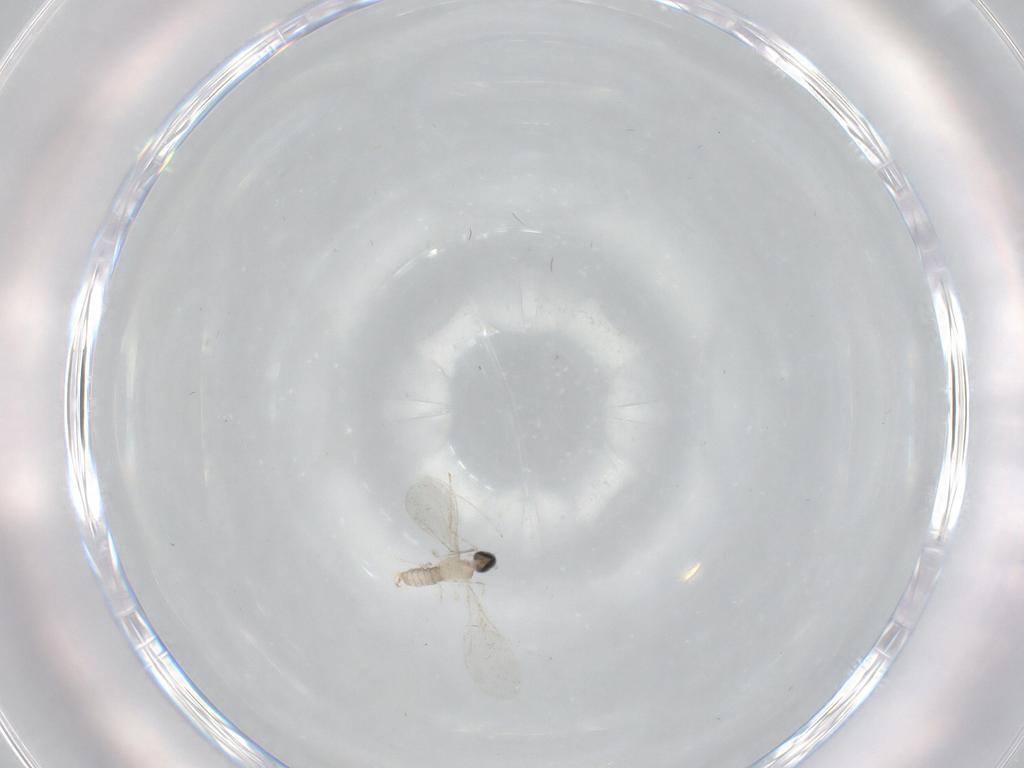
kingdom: Animalia
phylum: Arthropoda
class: Insecta
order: Diptera
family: Cecidomyiidae
